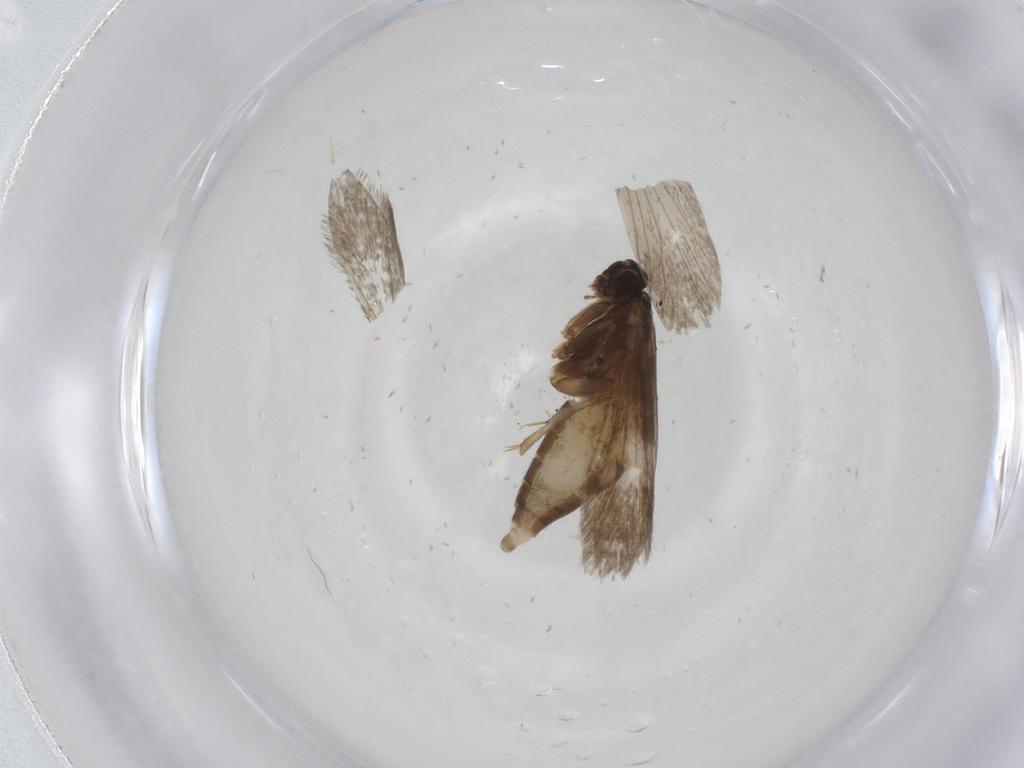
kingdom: Animalia
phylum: Arthropoda
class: Insecta
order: Lepidoptera
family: Micropterigidae
